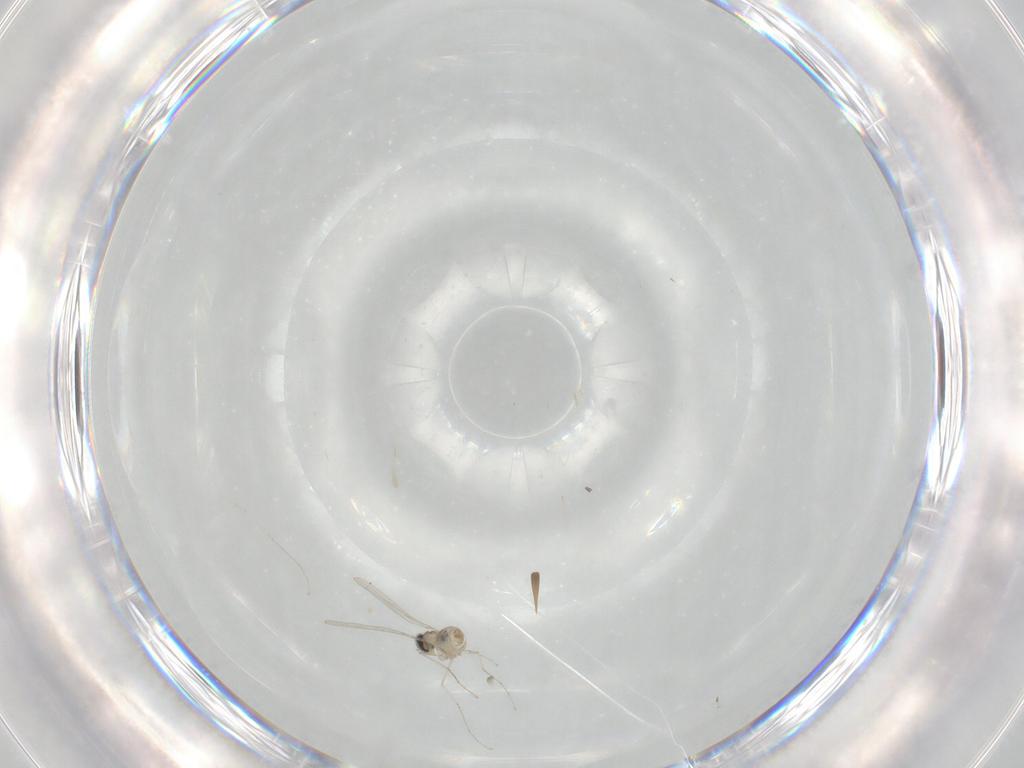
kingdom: Animalia
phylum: Arthropoda
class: Insecta
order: Diptera
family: Cecidomyiidae
